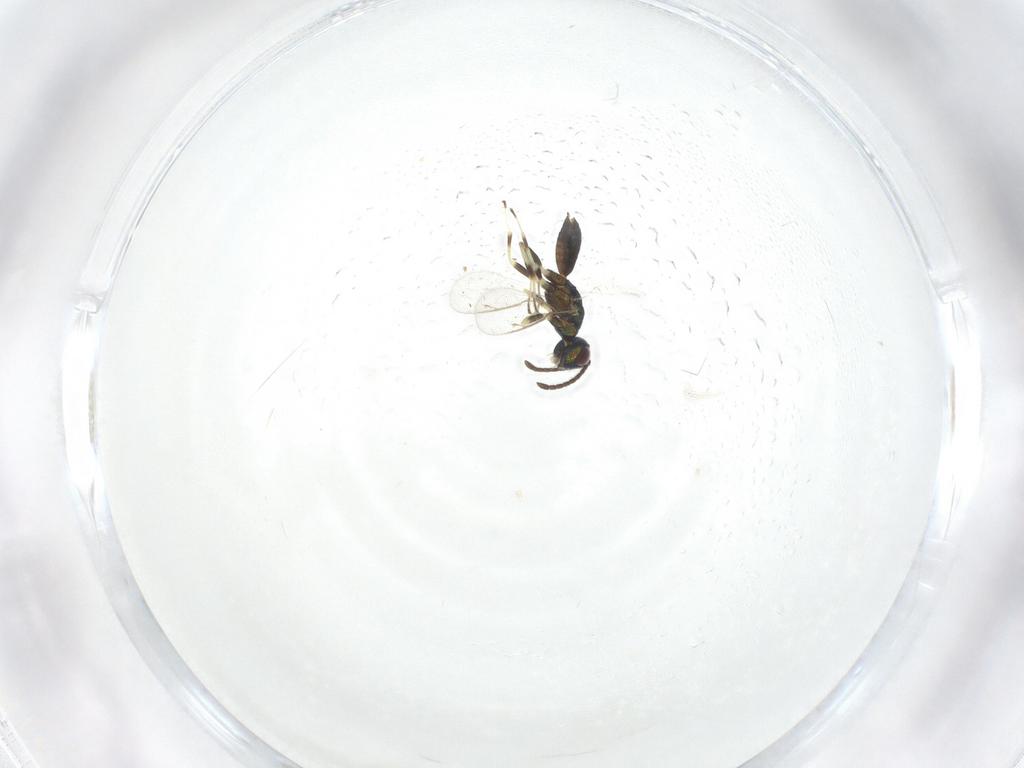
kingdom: Animalia
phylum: Arthropoda
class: Insecta
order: Hymenoptera
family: Eupelmidae
